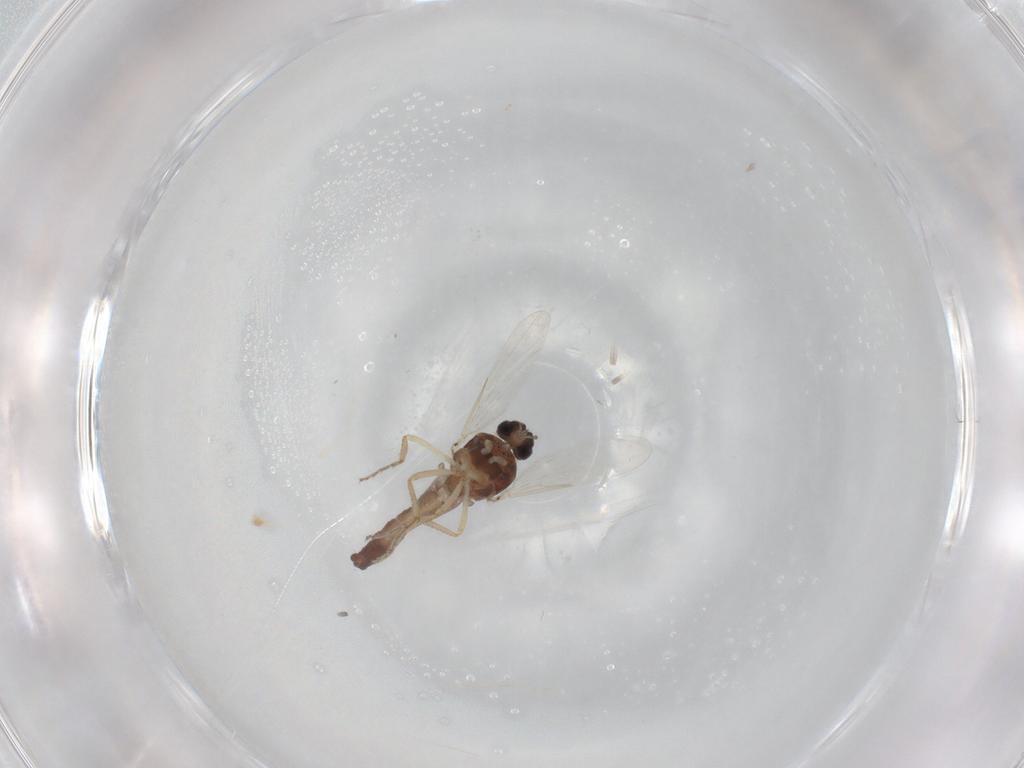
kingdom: Animalia
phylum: Arthropoda
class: Insecta
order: Diptera
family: Ceratopogonidae
